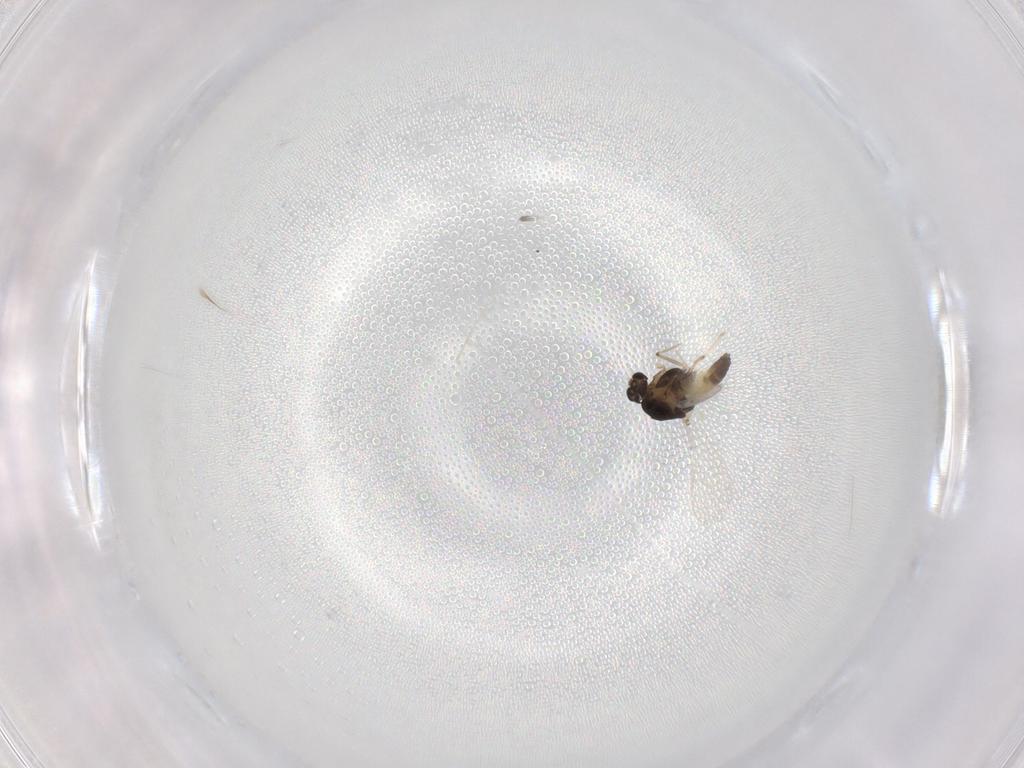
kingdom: Animalia
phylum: Arthropoda
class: Insecta
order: Diptera
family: Chironomidae
